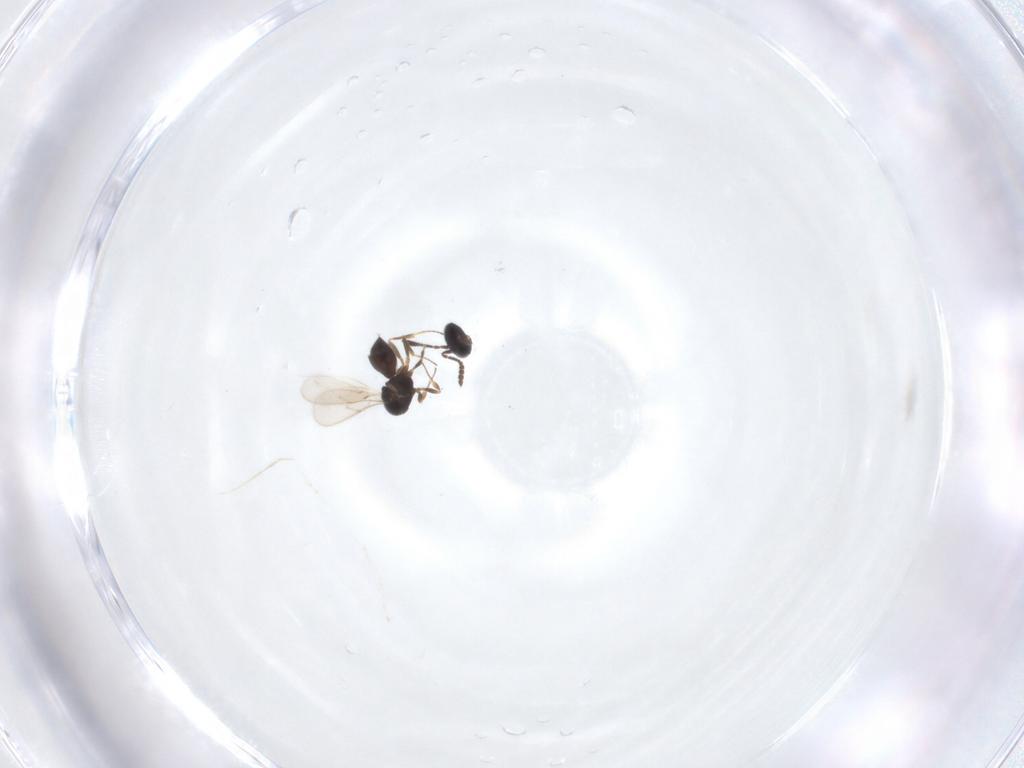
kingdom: Animalia
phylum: Arthropoda
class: Insecta
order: Hymenoptera
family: Scelionidae
